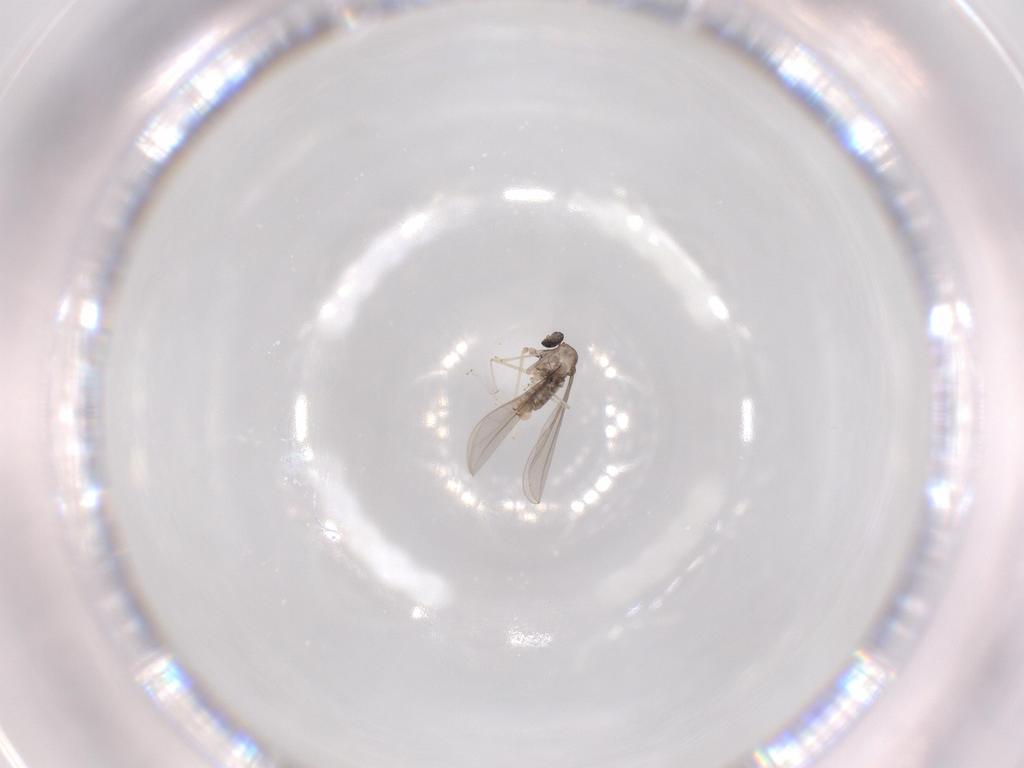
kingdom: Animalia
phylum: Arthropoda
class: Insecta
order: Diptera
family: Cecidomyiidae
